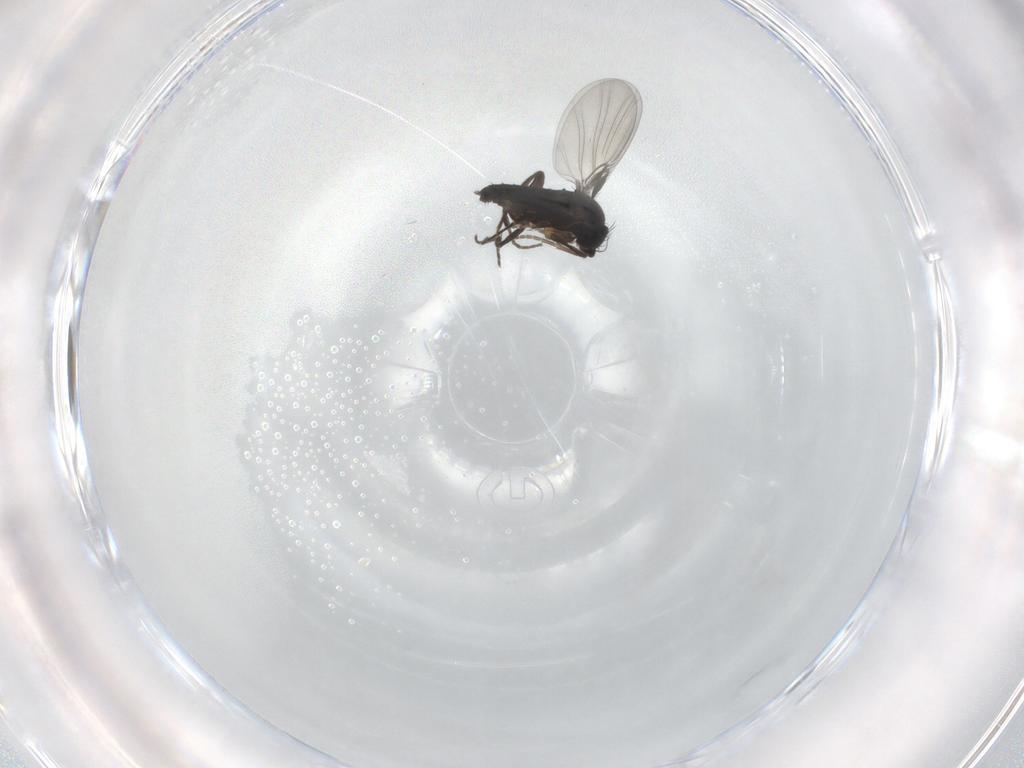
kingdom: Animalia
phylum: Arthropoda
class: Insecta
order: Diptera
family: Phoridae
